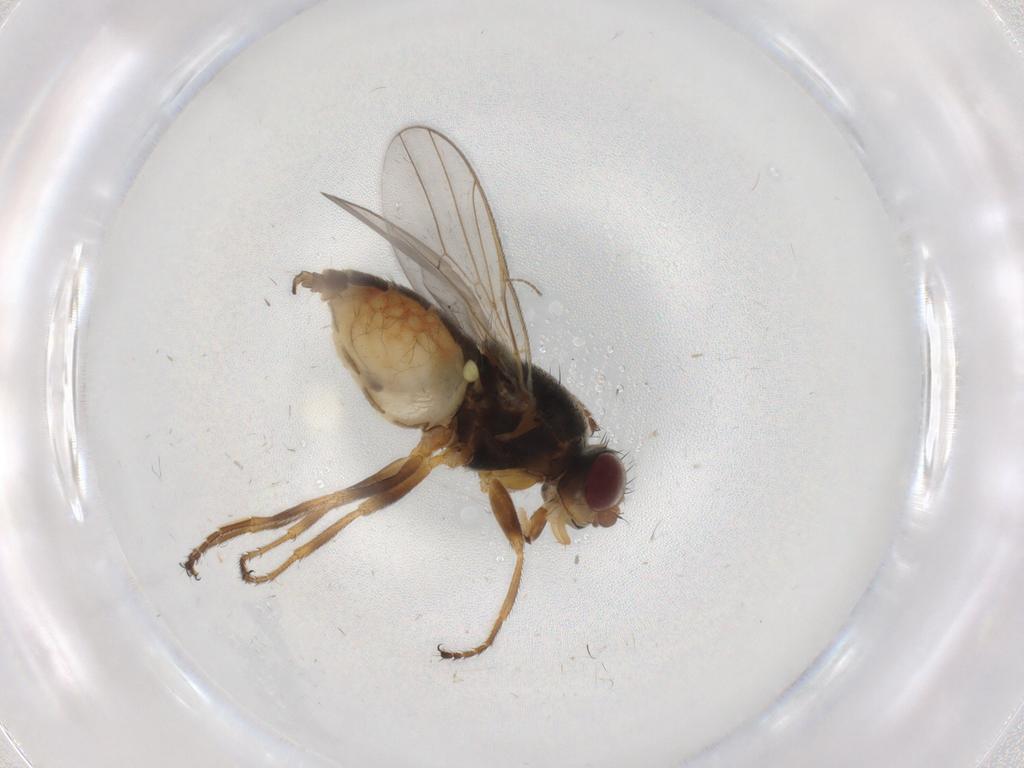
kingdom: Animalia
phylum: Arthropoda
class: Insecta
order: Diptera
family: Chloropidae
